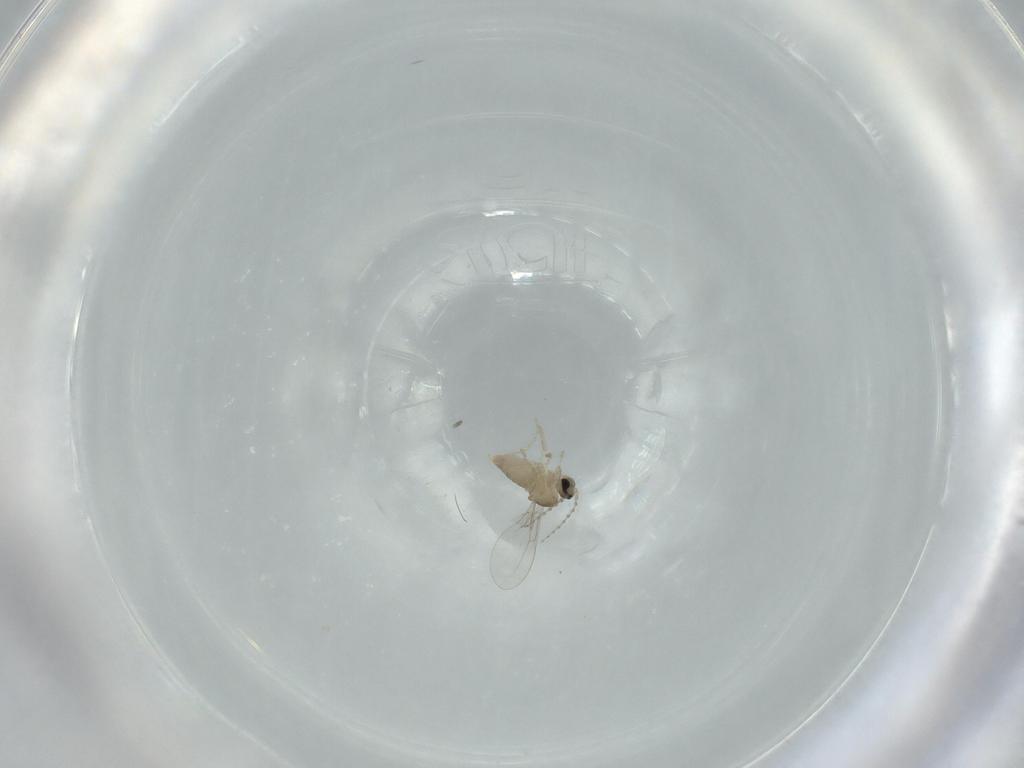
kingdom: Animalia
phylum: Arthropoda
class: Insecta
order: Diptera
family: Cecidomyiidae
